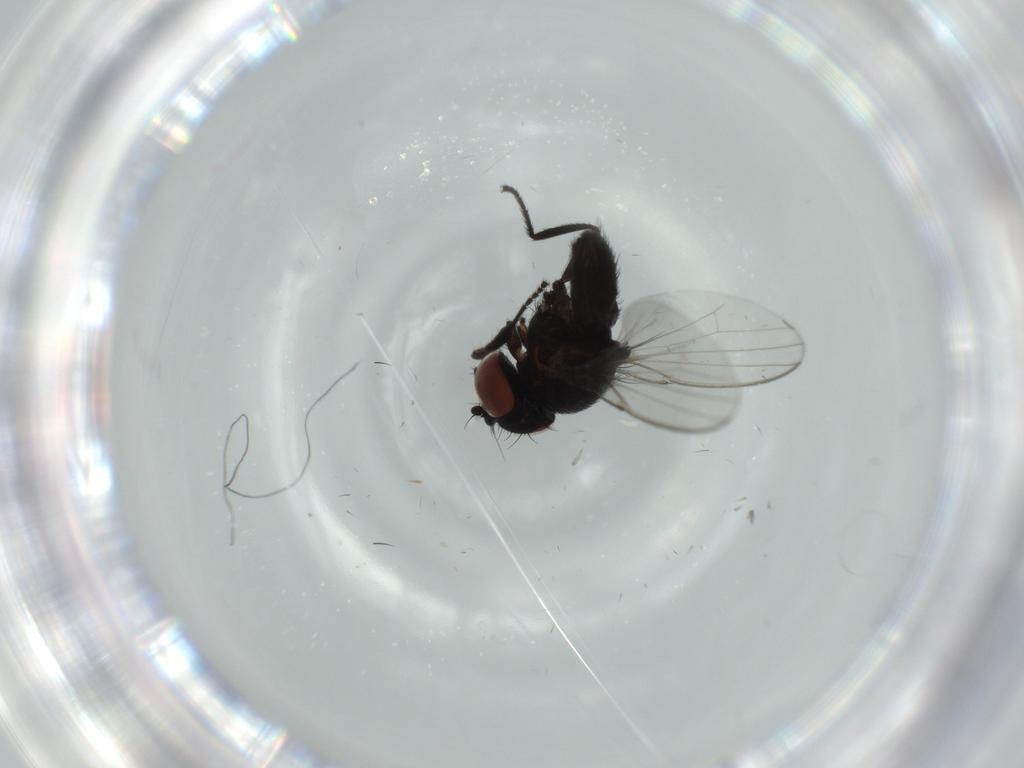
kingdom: Animalia
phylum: Arthropoda
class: Insecta
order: Diptera
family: Milichiidae
